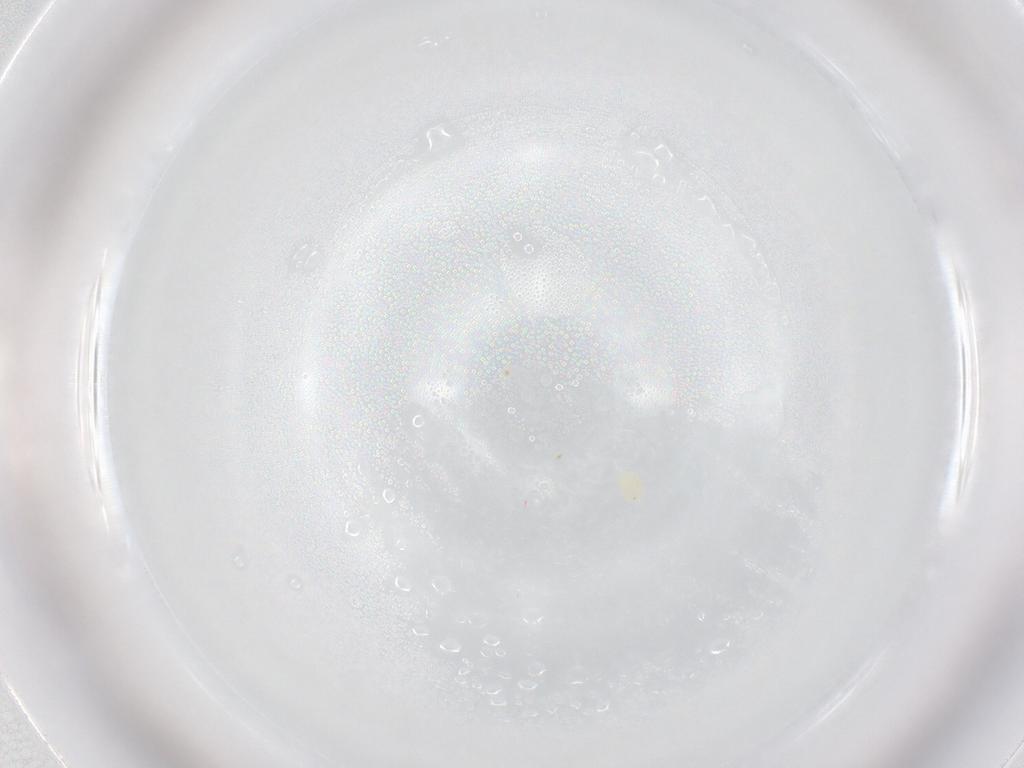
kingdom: Animalia
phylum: Arthropoda
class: Arachnida
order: Trombidiformes
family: Tetranychidae
